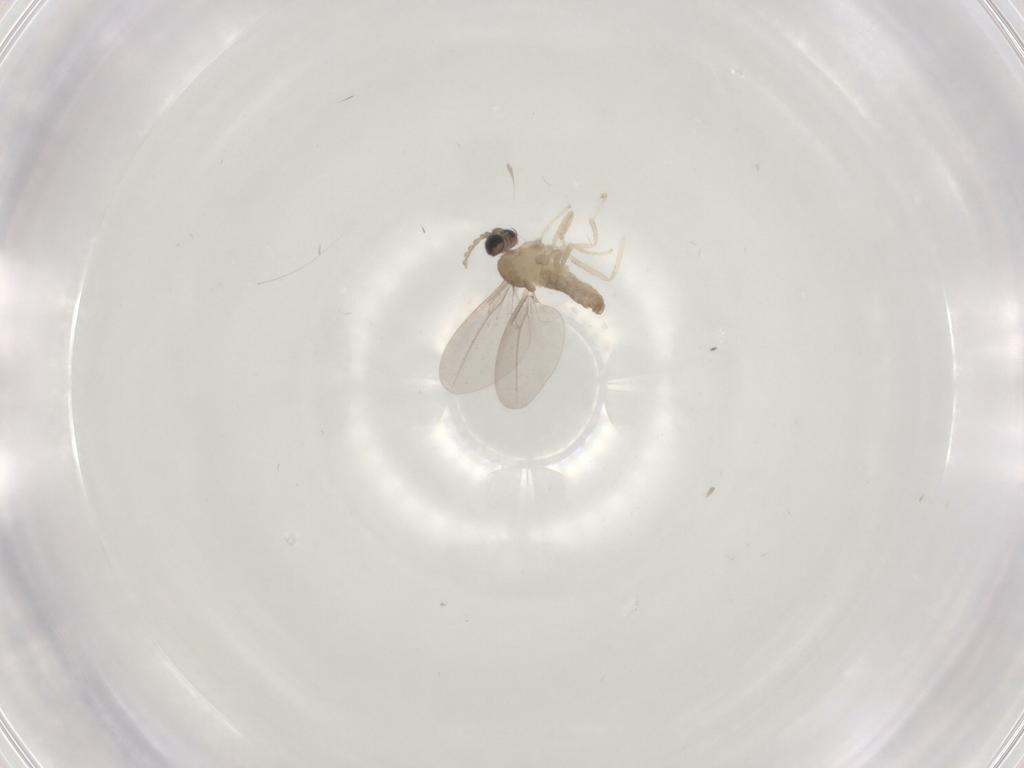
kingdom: Animalia
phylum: Arthropoda
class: Insecta
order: Diptera
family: Cecidomyiidae
